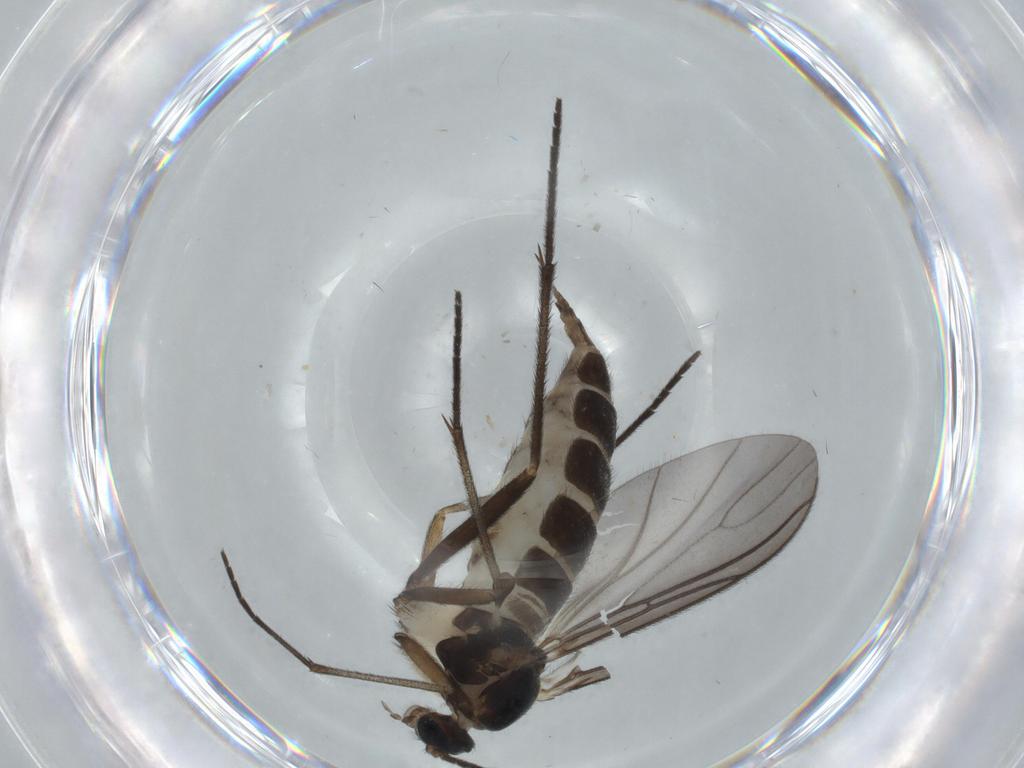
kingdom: Animalia
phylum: Arthropoda
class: Insecta
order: Diptera
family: Sciaridae
